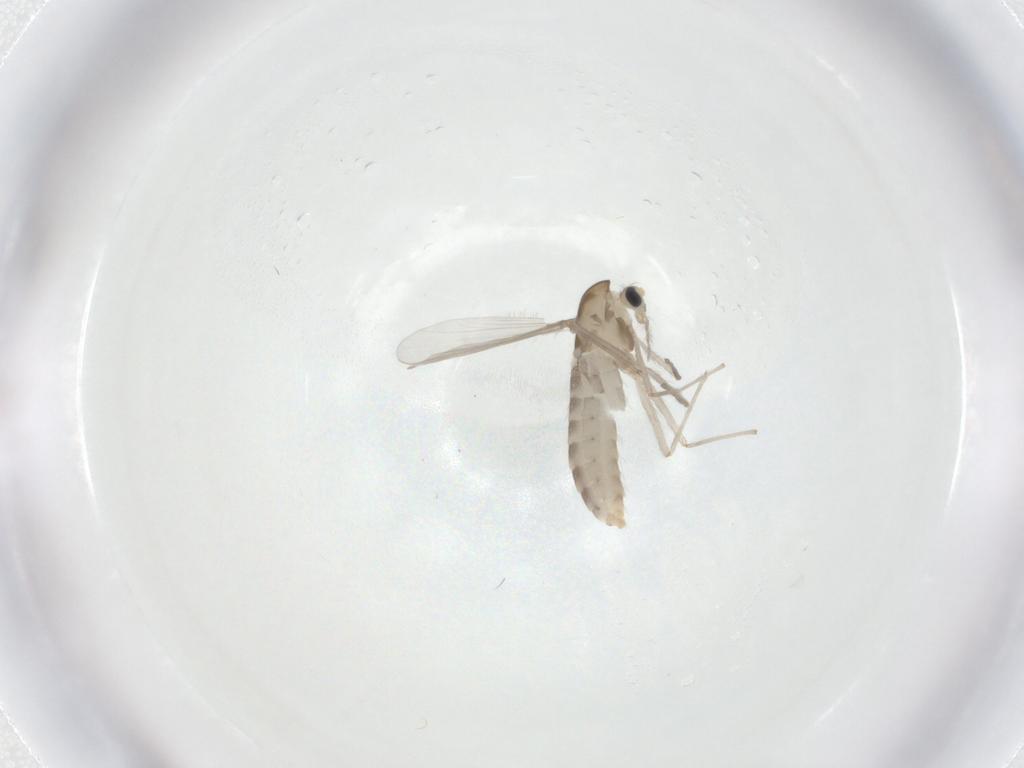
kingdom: Animalia
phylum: Arthropoda
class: Insecta
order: Diptera
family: Chironomidae
